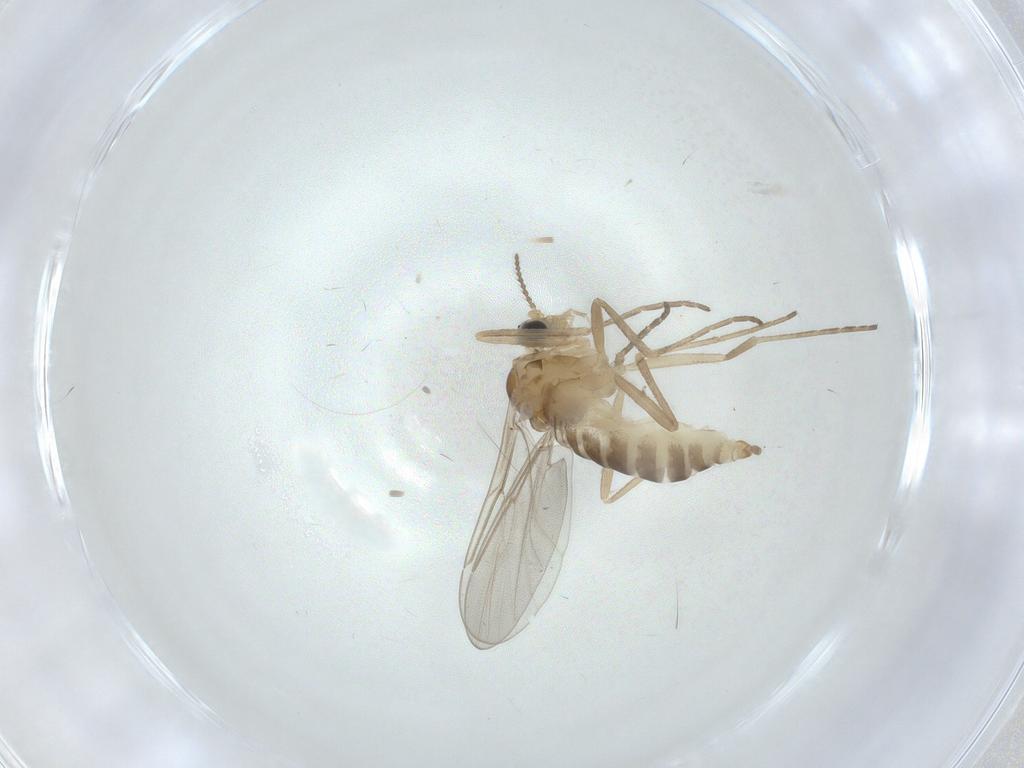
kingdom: Animalia
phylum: Arthropoda
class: Insecta
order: Diptera
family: Cecidomyiidae
